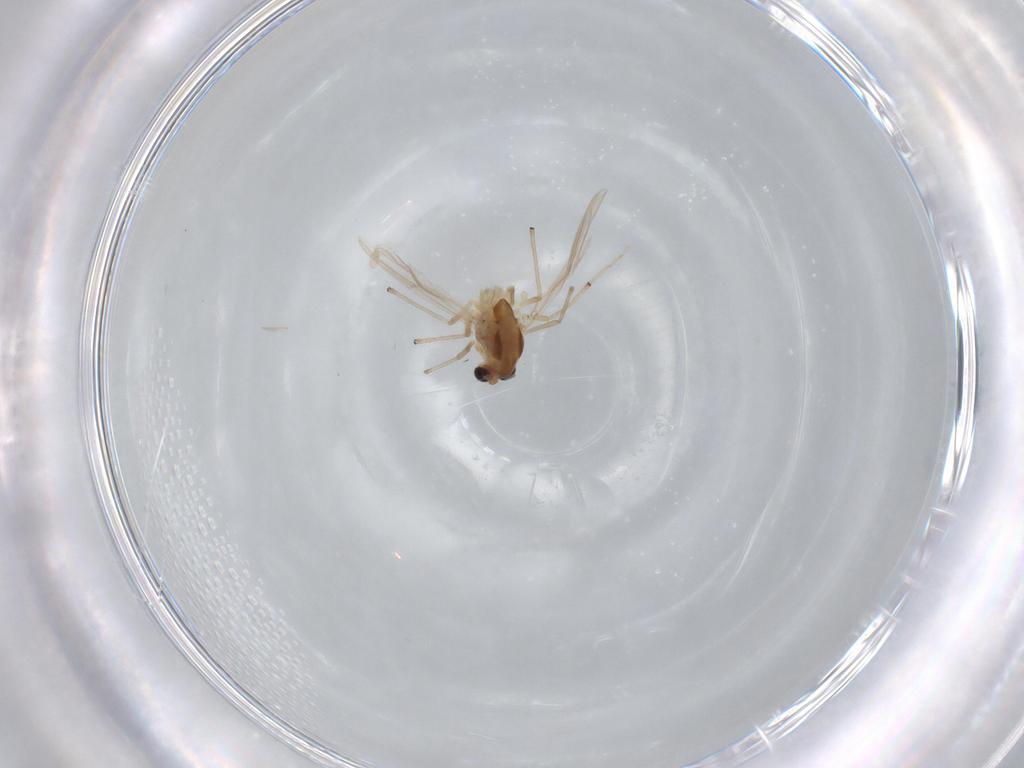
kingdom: Animalia
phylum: Arthropoda
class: Insecta
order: Diptera
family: Chironomidae
